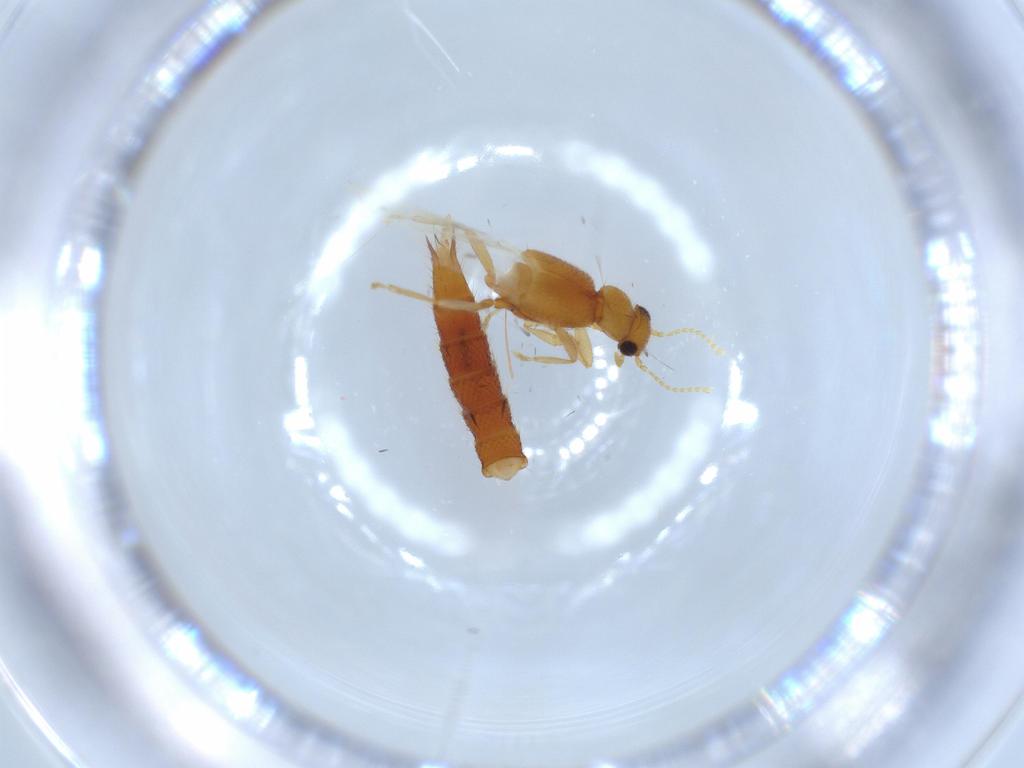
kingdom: Animalia
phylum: Arthropoda
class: Insecta
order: Coleoptera
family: Staphylinidae
